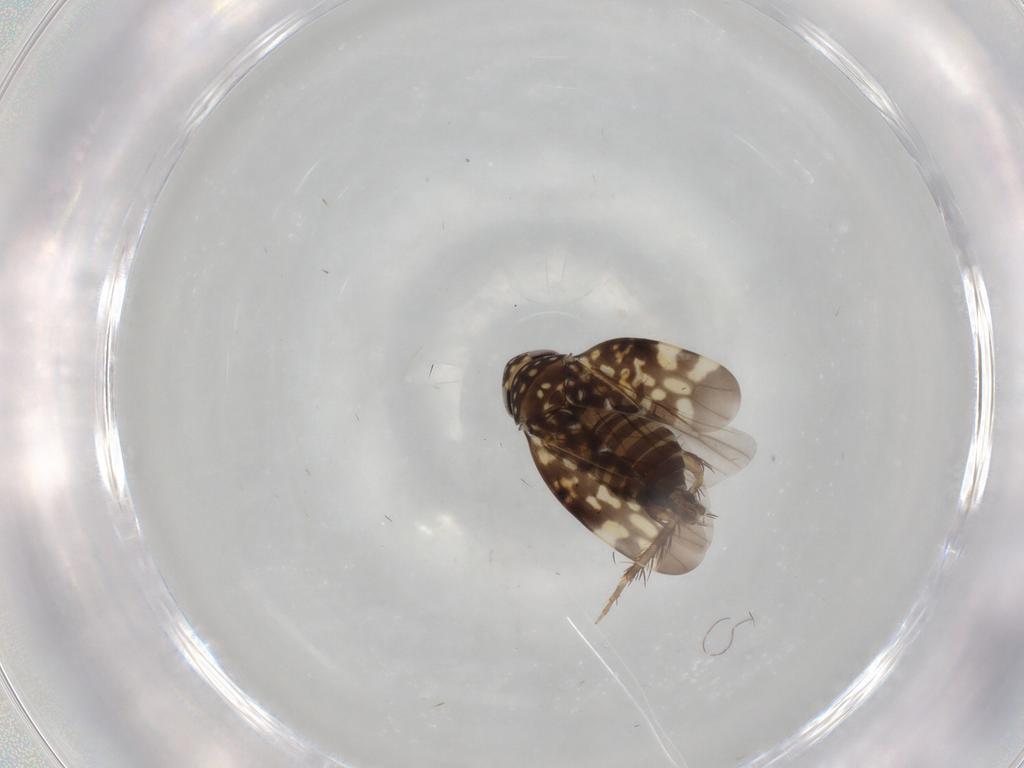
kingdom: Animalia
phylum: Arthropoda
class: Insecta
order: Hemiptera
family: Cicadellidae
